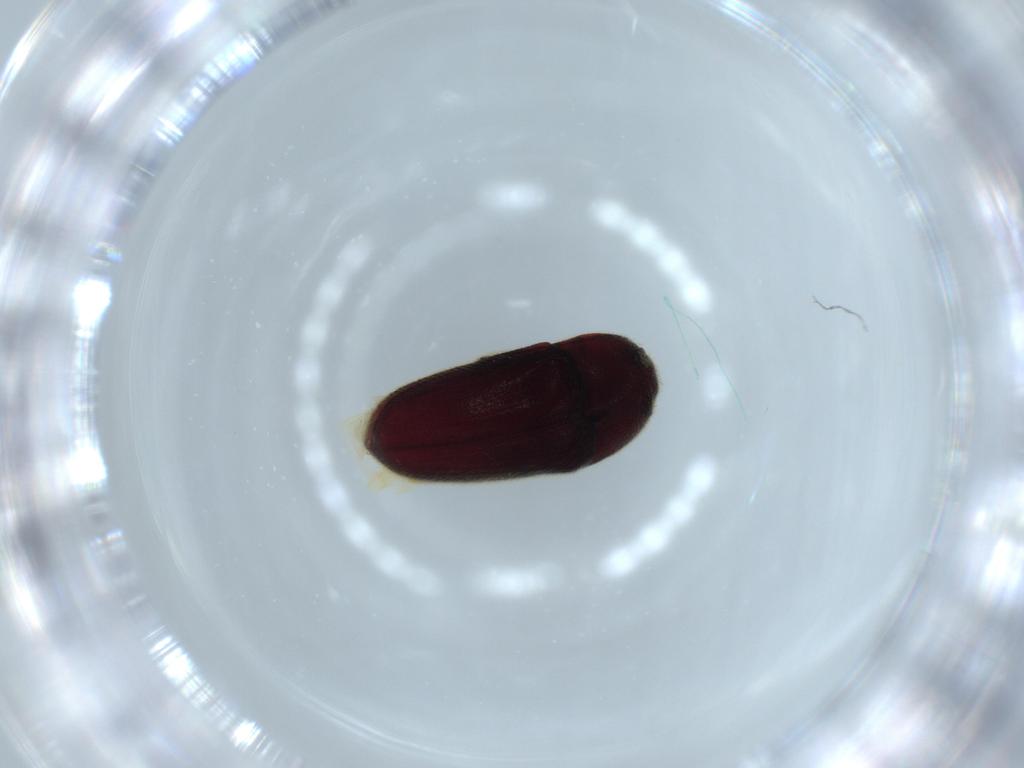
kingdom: Animalia
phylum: Arthropoda
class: Insecta
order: Coleoptera
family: Throscidae
